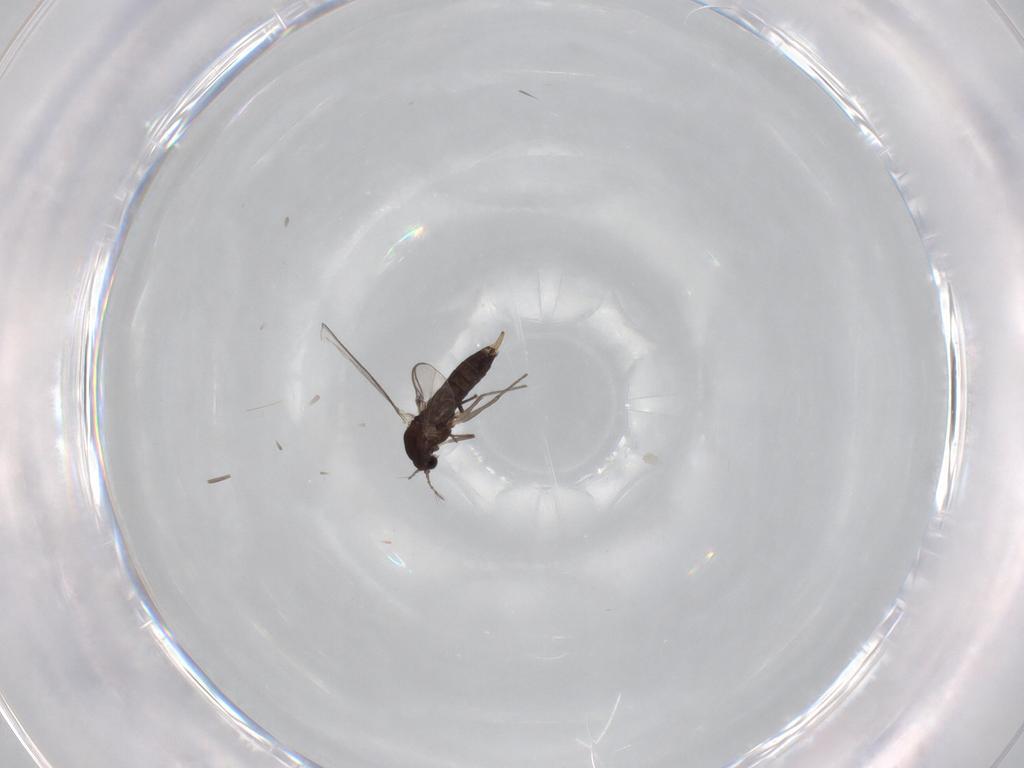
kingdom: Animalia
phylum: Arthropoda
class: Insecta
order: Diptera
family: Chironomidae
